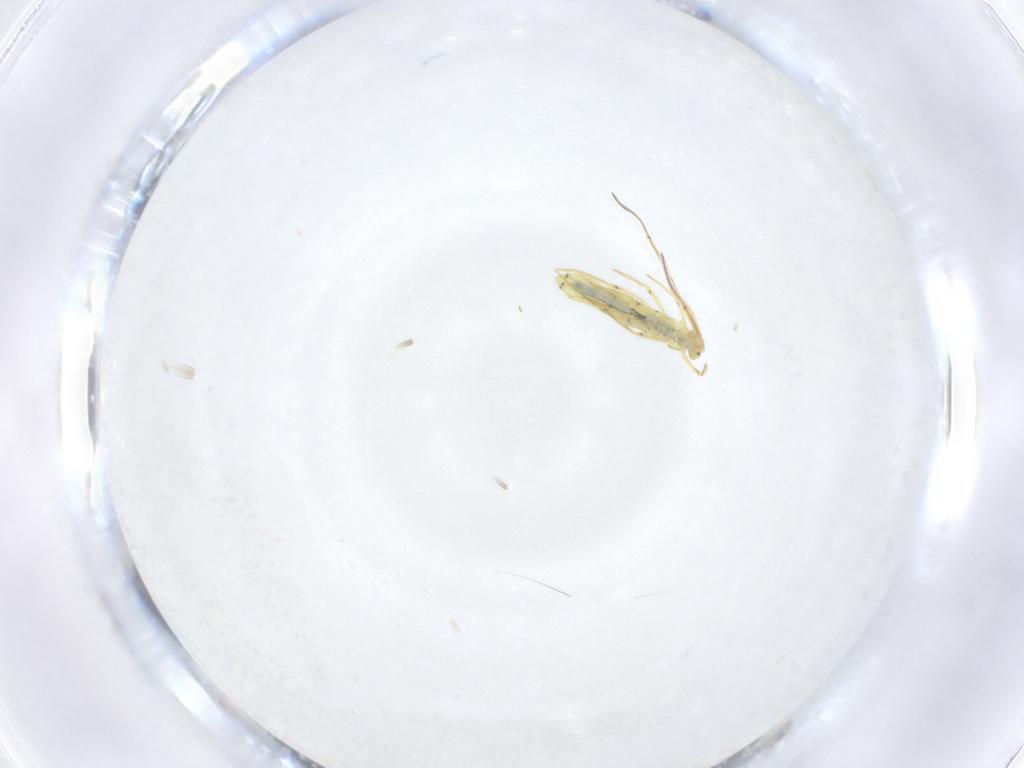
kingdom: Animalia
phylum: Arthropoda
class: Collembola
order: Entomobryomorpha
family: Entomobryidae
